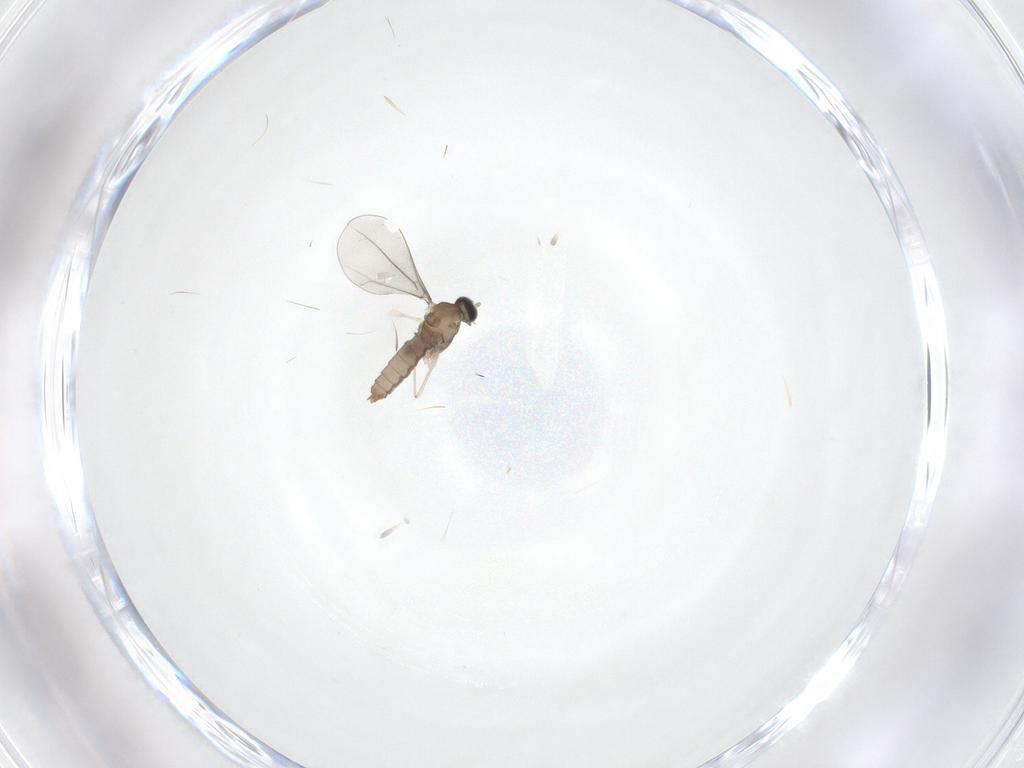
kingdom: Animalia
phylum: Arthropoda
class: Insecta
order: Diptera
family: Cecidomyiidae
